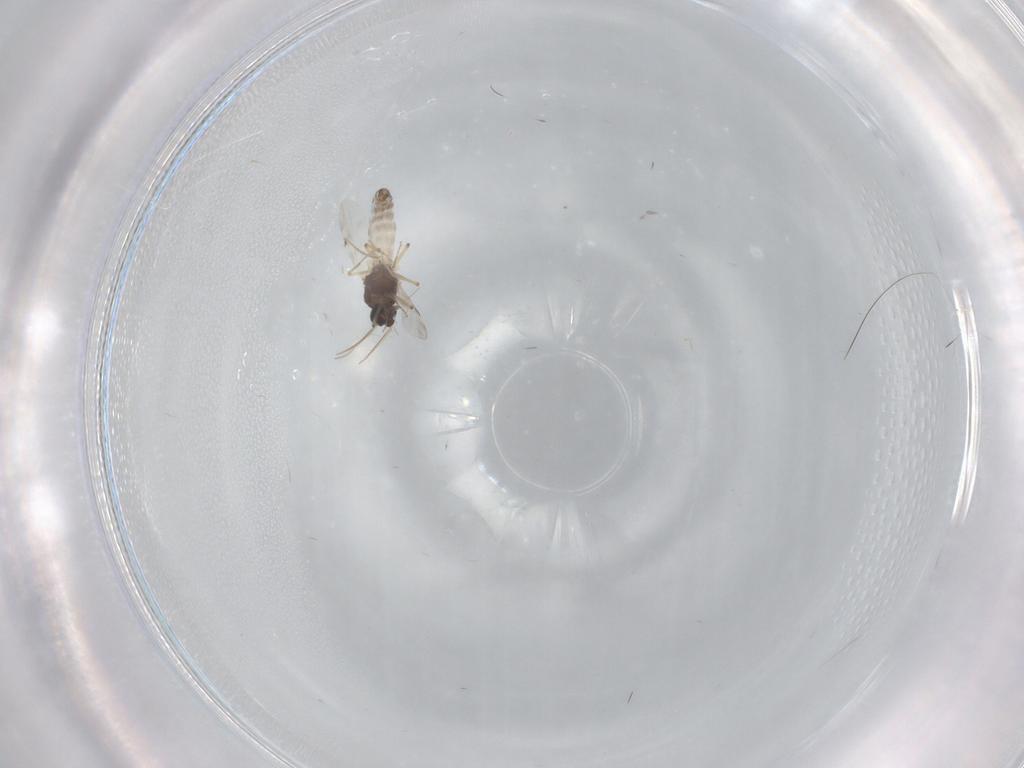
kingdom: Animalia
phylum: Arthropoda
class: Insecta
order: Diptera
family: Chironomidae
